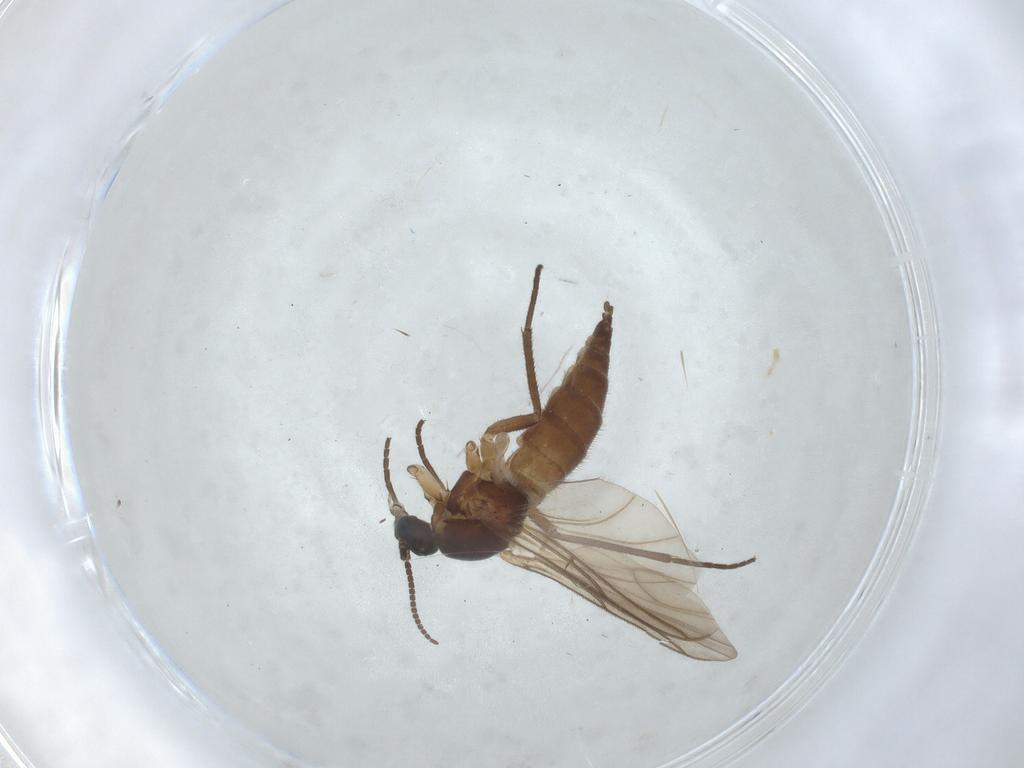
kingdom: Animalia
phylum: Arthropoda
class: Insecta
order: Diptera
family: Sciaridae
